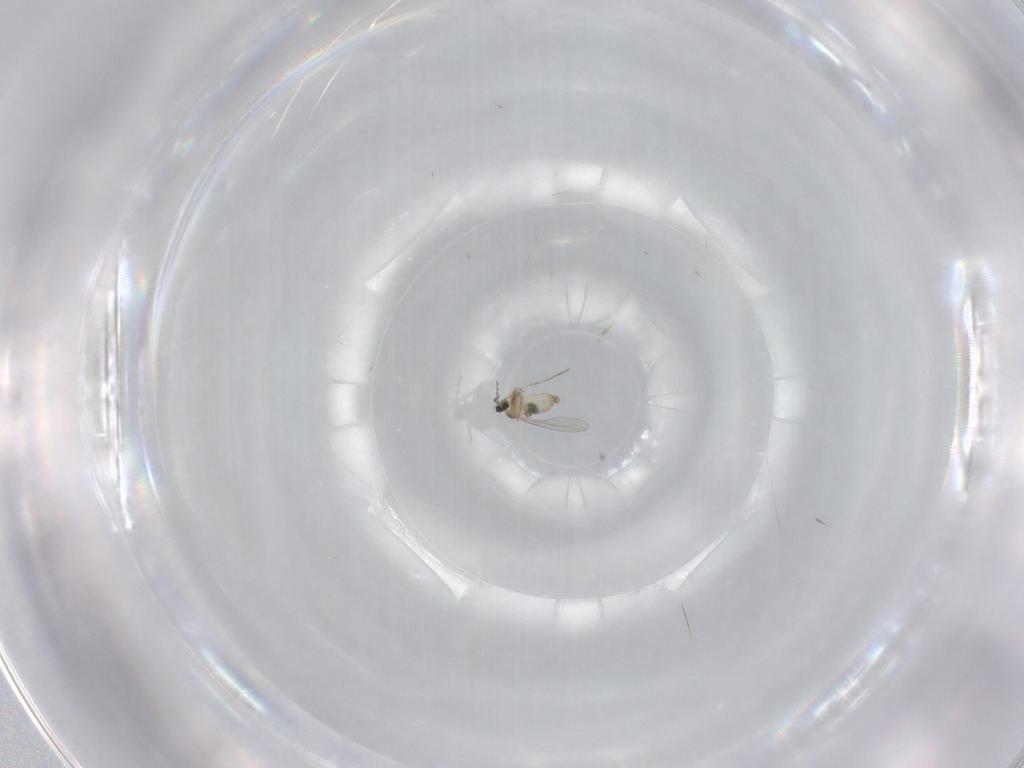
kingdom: Animalia
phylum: Arthropoda
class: Insecta
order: Diptera
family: Cecidomyiidae
